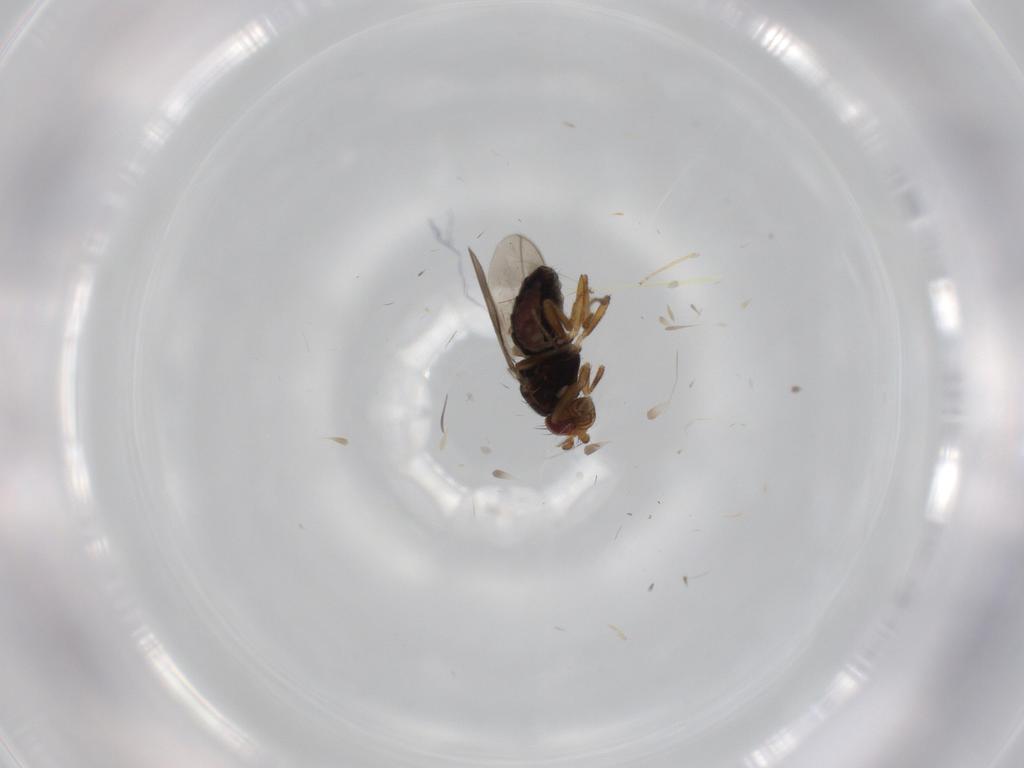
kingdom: Animalia
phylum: Arthropoda
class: Insecta
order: Diptera
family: Sphaeroceridae
